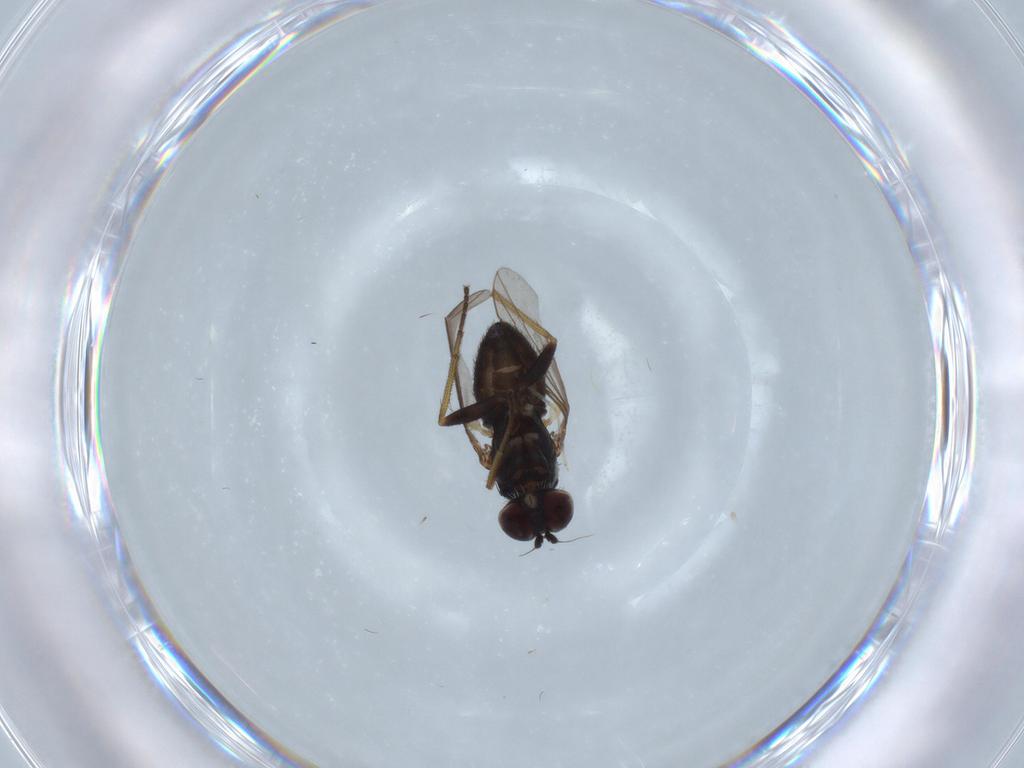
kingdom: Animalia
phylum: Arthropoda
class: Insecta
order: Diptera
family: Dolichopodidae
